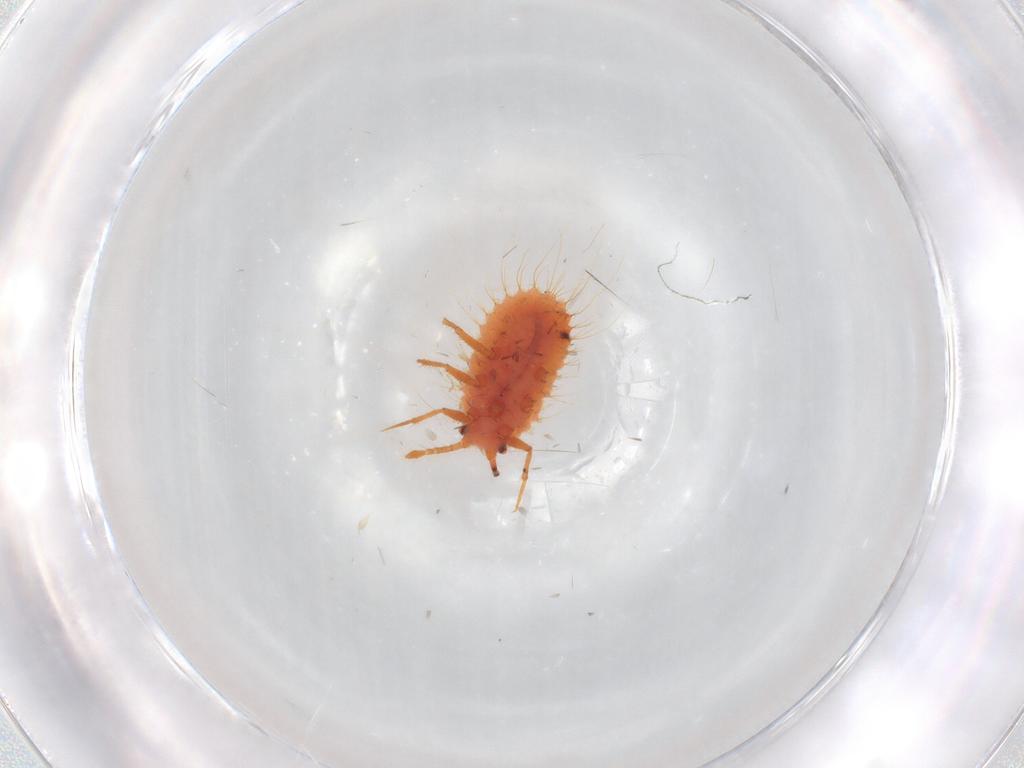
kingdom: Animalia
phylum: Arthropoda
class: Insecta
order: Hemiptera
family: Coccoidea_incertae_sedis
